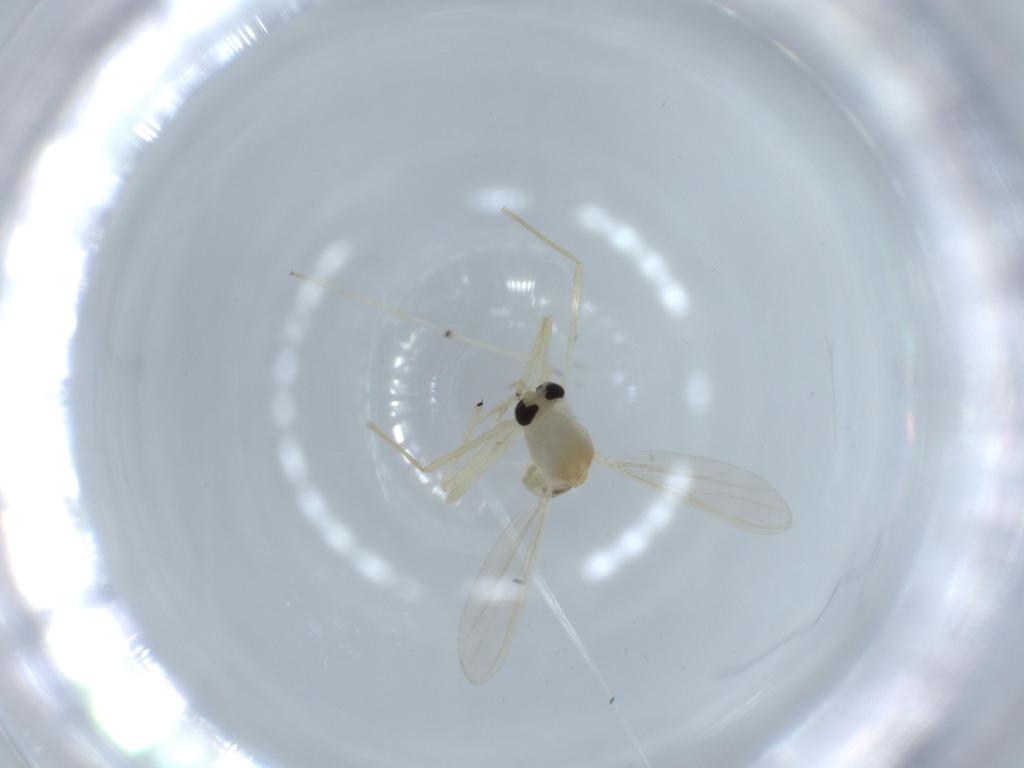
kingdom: Animalia
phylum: Arthropoda
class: Insecta
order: Diptera
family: Chironomidae
